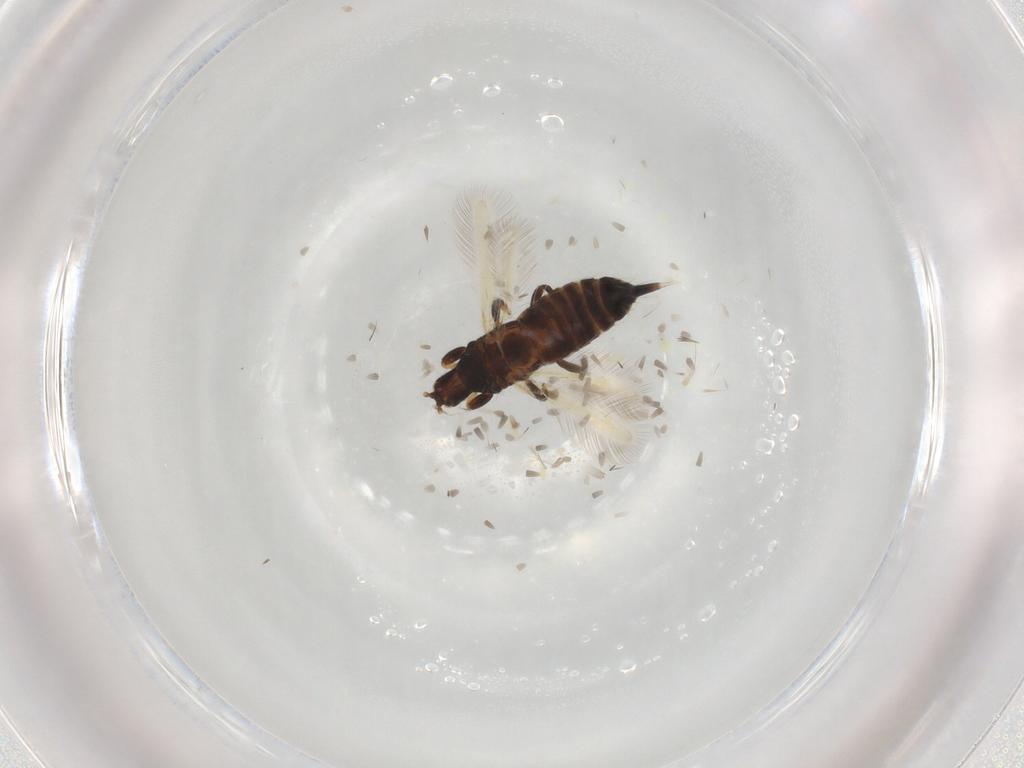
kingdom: Animalia
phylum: Arthropoda
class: Insecta
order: Thysanoptera
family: Phlaeothripidae
